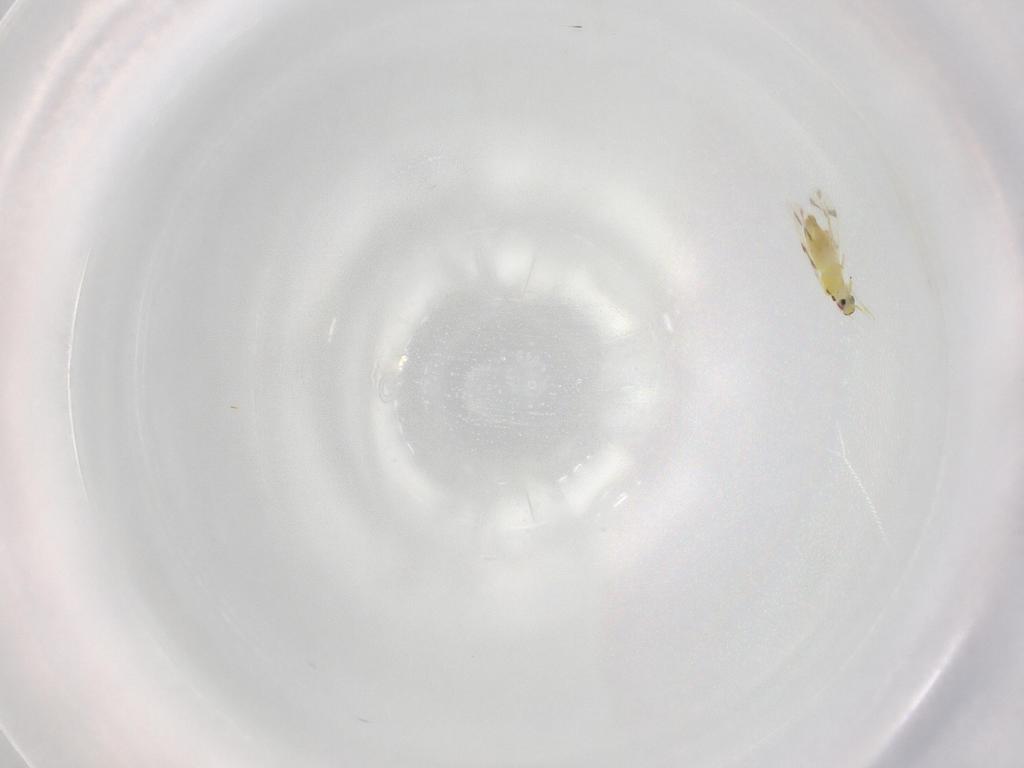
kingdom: Animalia
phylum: Arthropoda
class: Insecta
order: Hemiptera
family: Aleyrodidae
